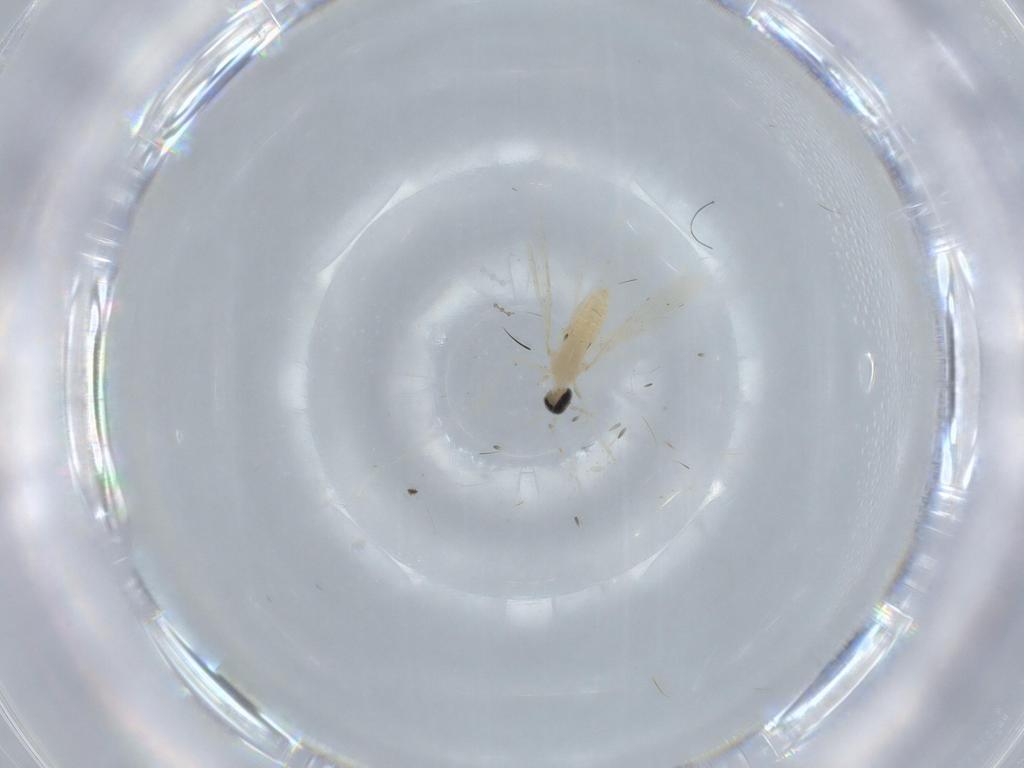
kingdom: Animalia
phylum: Arthropoda
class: Insecta
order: Diptera
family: Cecidomyiidae
